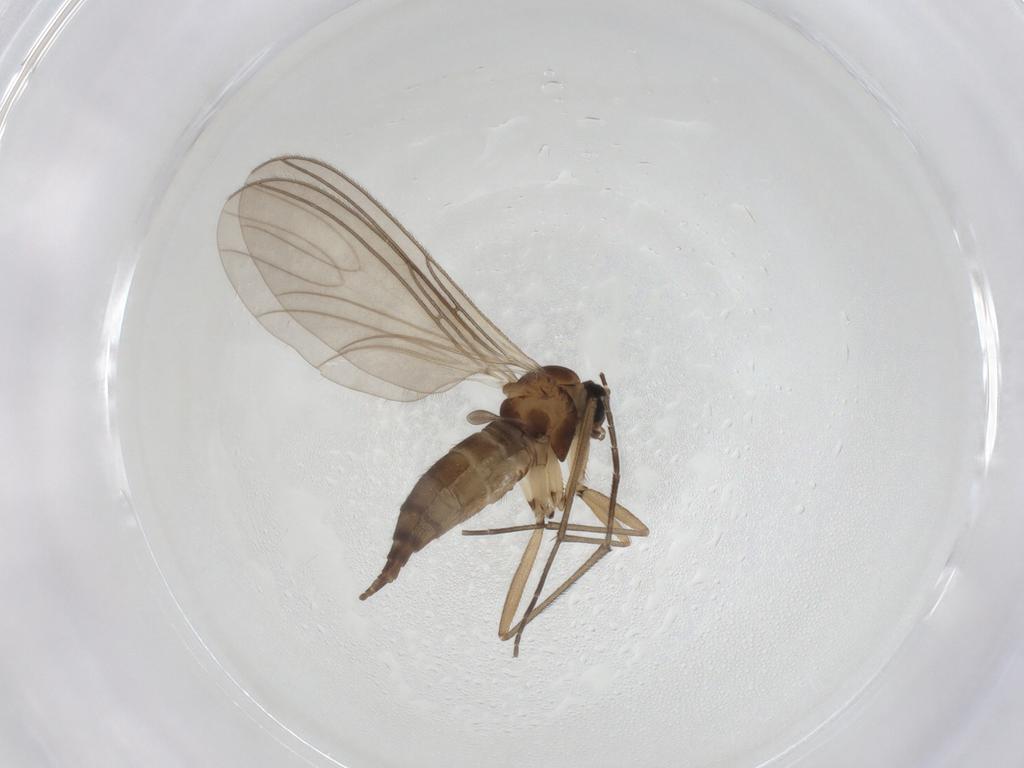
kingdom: Animalia
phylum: Arthropoda
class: Insecta
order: Diptera
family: Sciaridae
